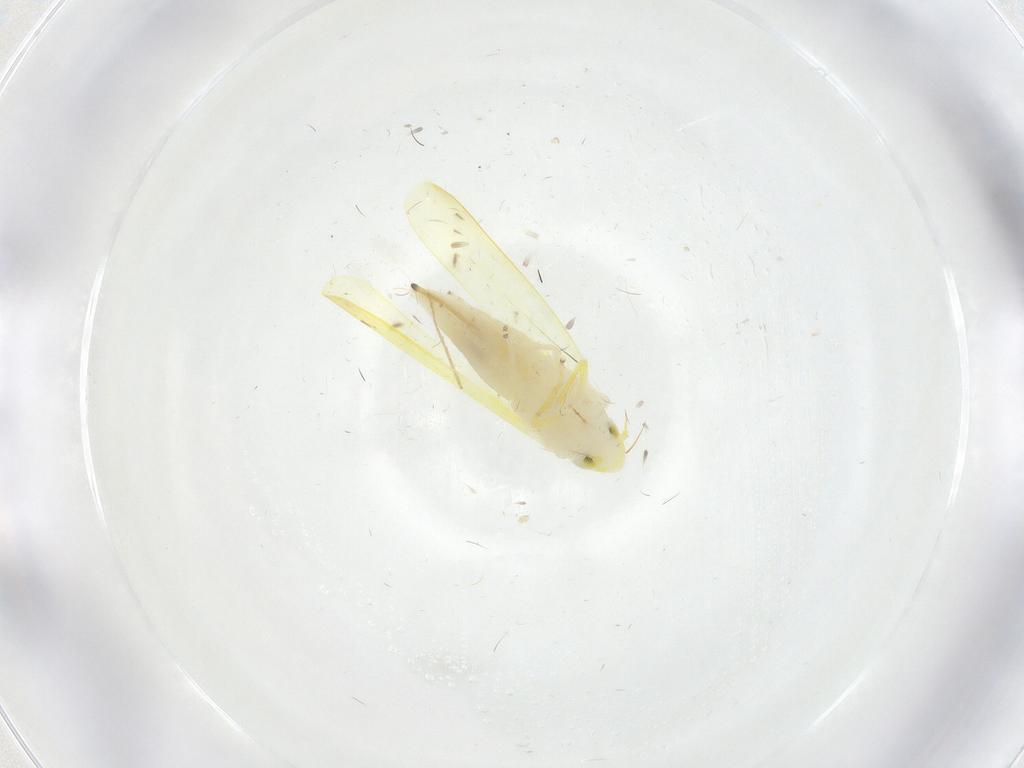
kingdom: Animalia
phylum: Arthropoda
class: Insecta
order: Hemiptera
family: Cicadellidae
